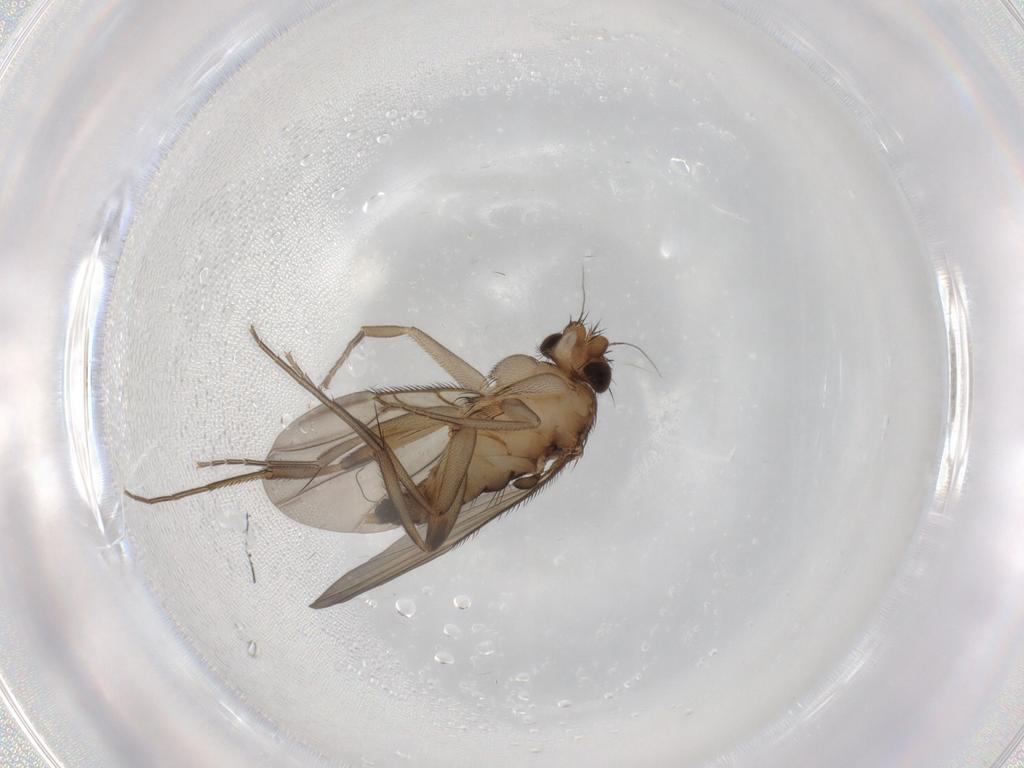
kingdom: Animalia
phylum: Arthropoda
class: Insecta
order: Diptera
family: Phoridae
